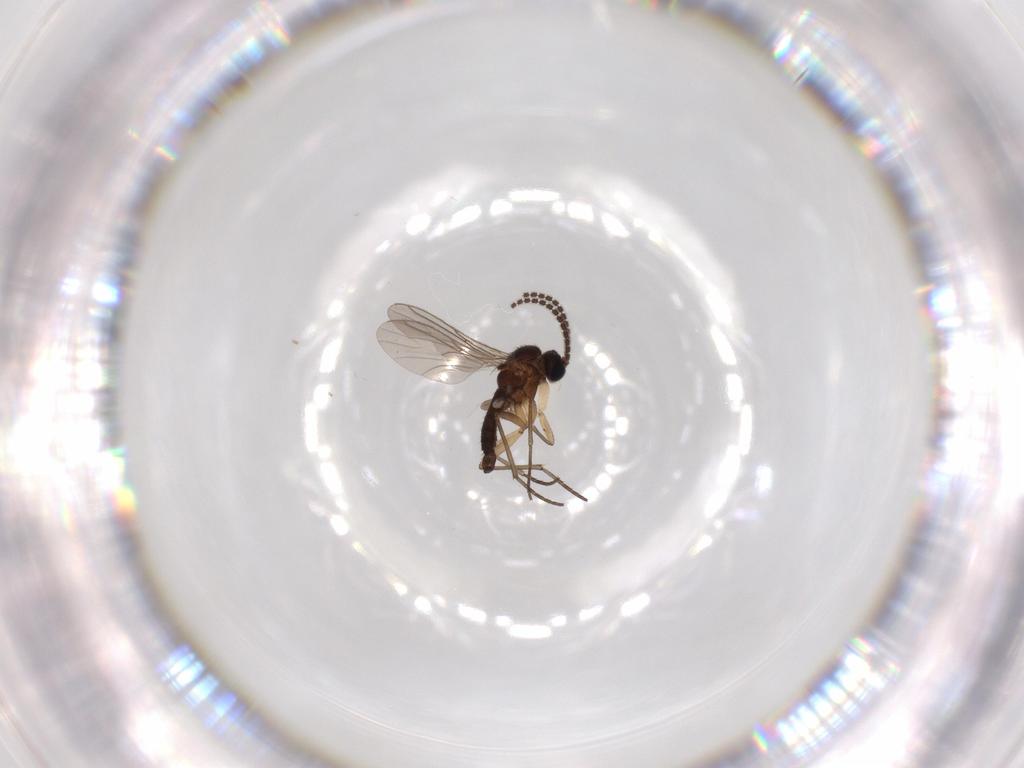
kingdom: Animalia
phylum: Arthropoda
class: Insecta
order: Diptera
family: Sciaridae
